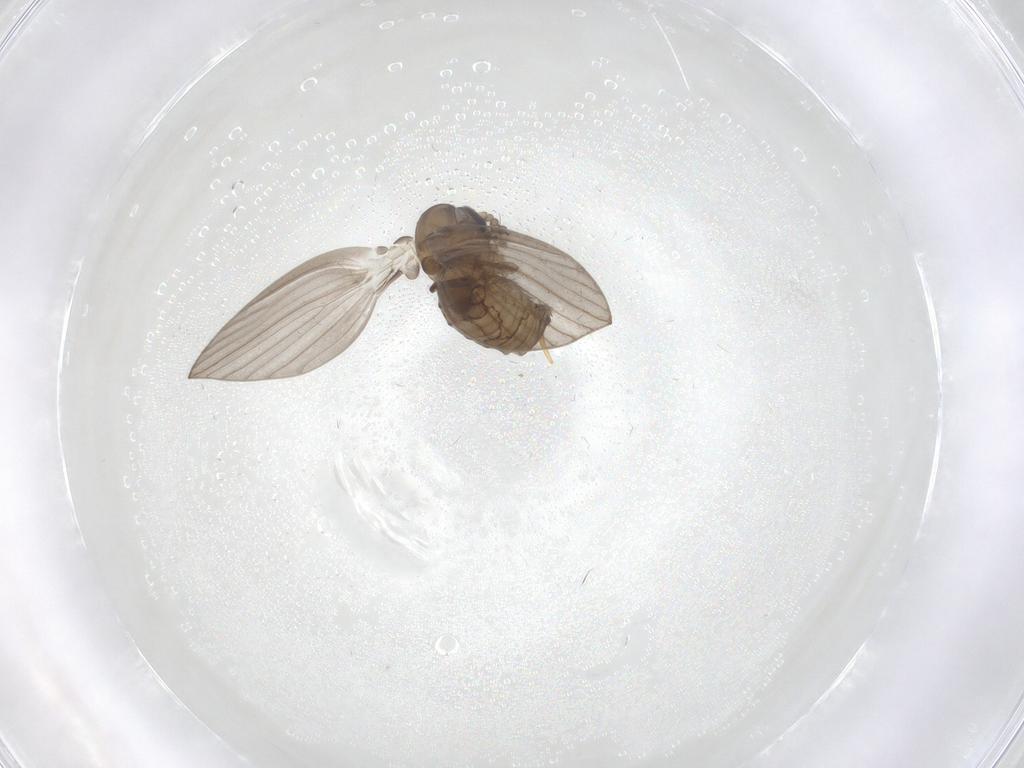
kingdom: Animalia
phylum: Arthropoda
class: Insecta
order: Diptera
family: Psychodidae
